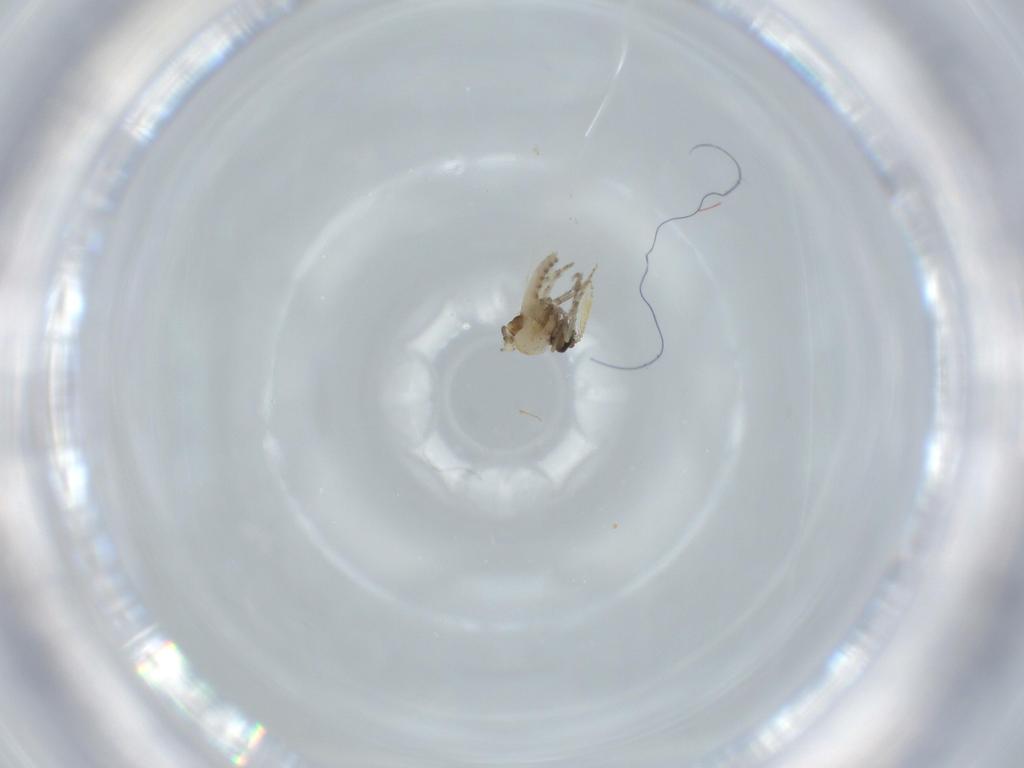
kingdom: Animalia
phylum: Arthropoda
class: Insecta
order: Diptera
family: Ceratopogonidae
